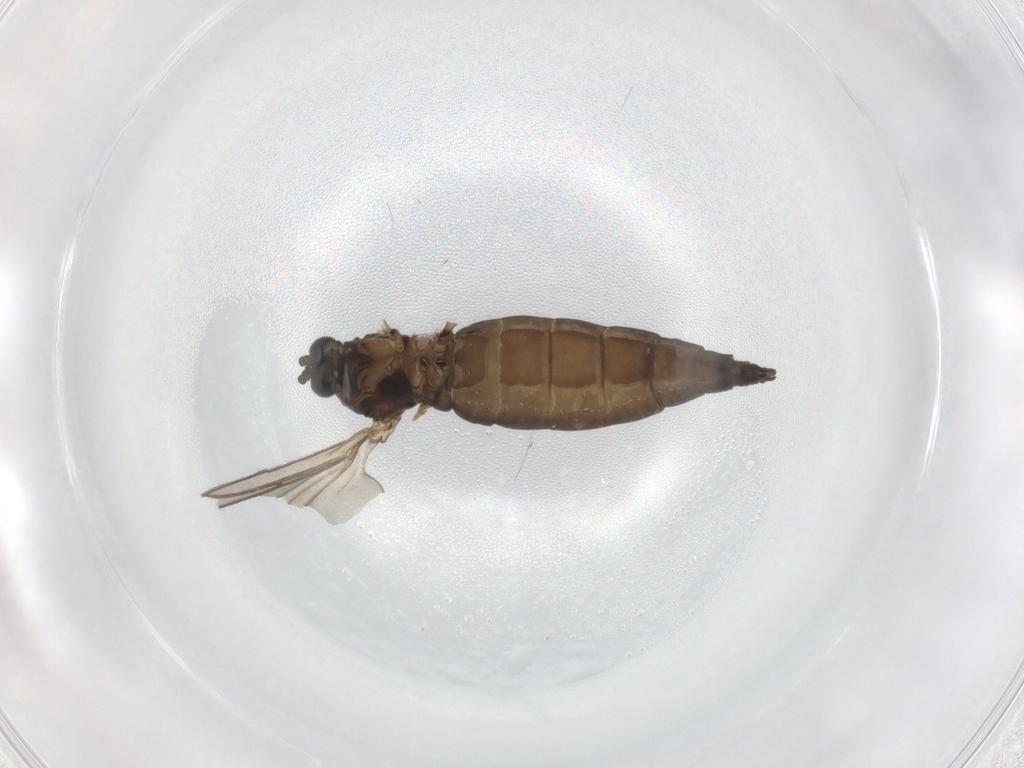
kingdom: Animalia
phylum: Arthropoda
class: Insecta
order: Diptera
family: Sciaridae
